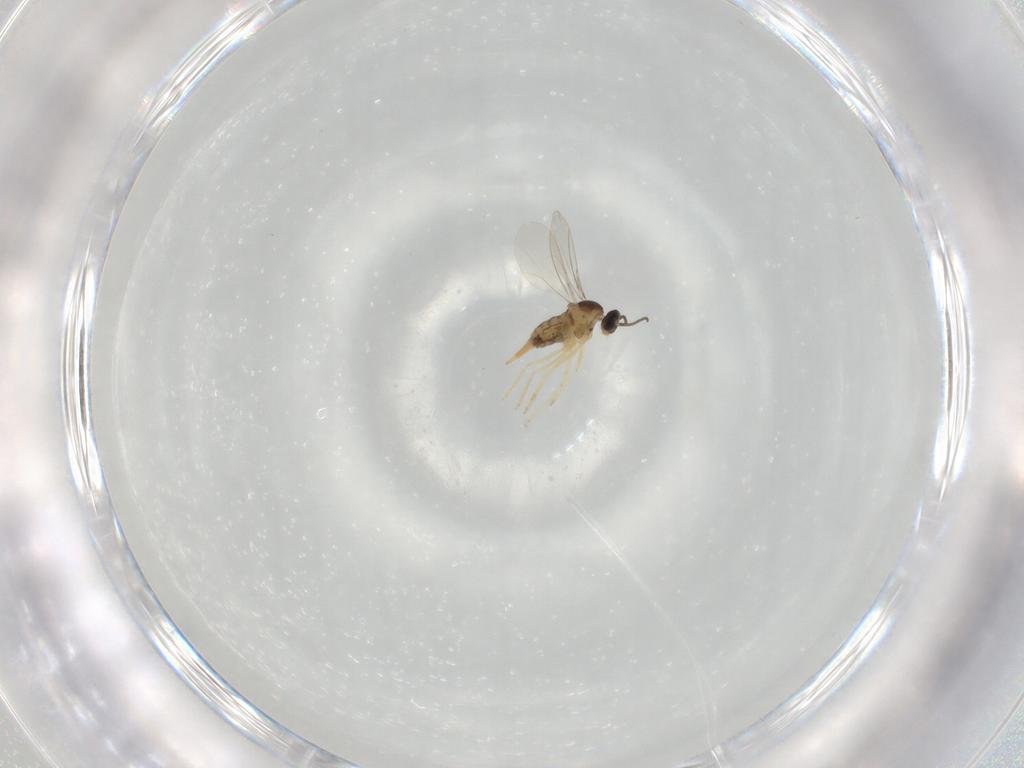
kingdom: Animalia
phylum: Arthropoda
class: Insecta
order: Diptera
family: Cecidomyiidae
